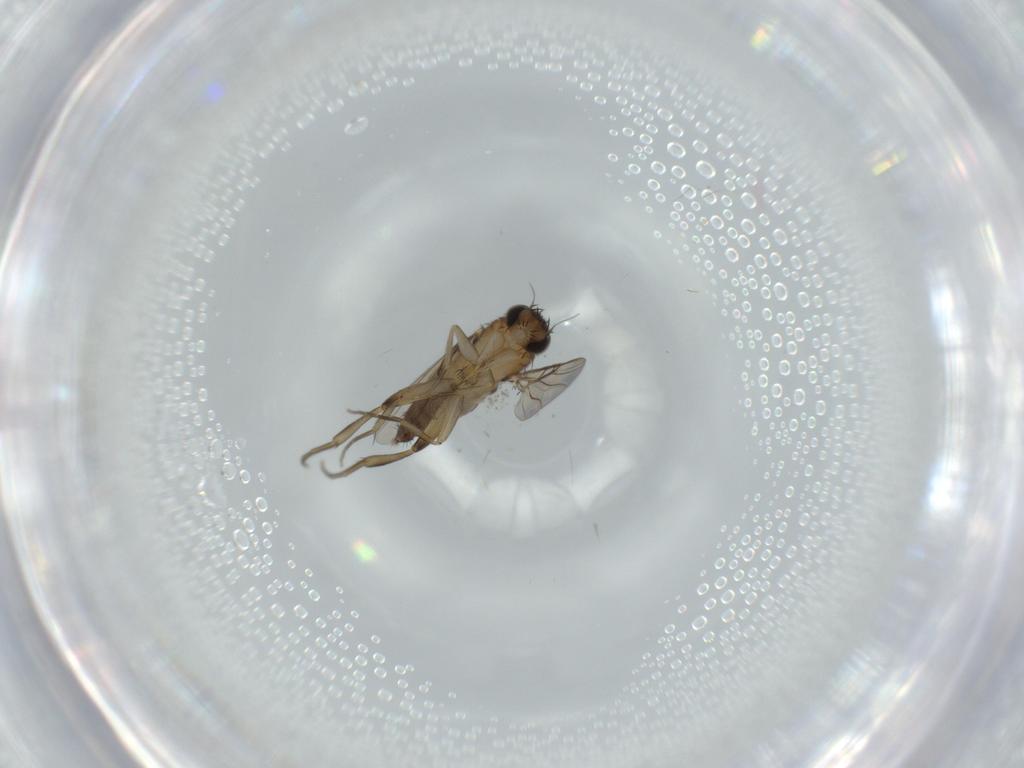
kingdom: Animalia
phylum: Arthropoda
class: Insecta
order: Diptera
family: Phoridae
